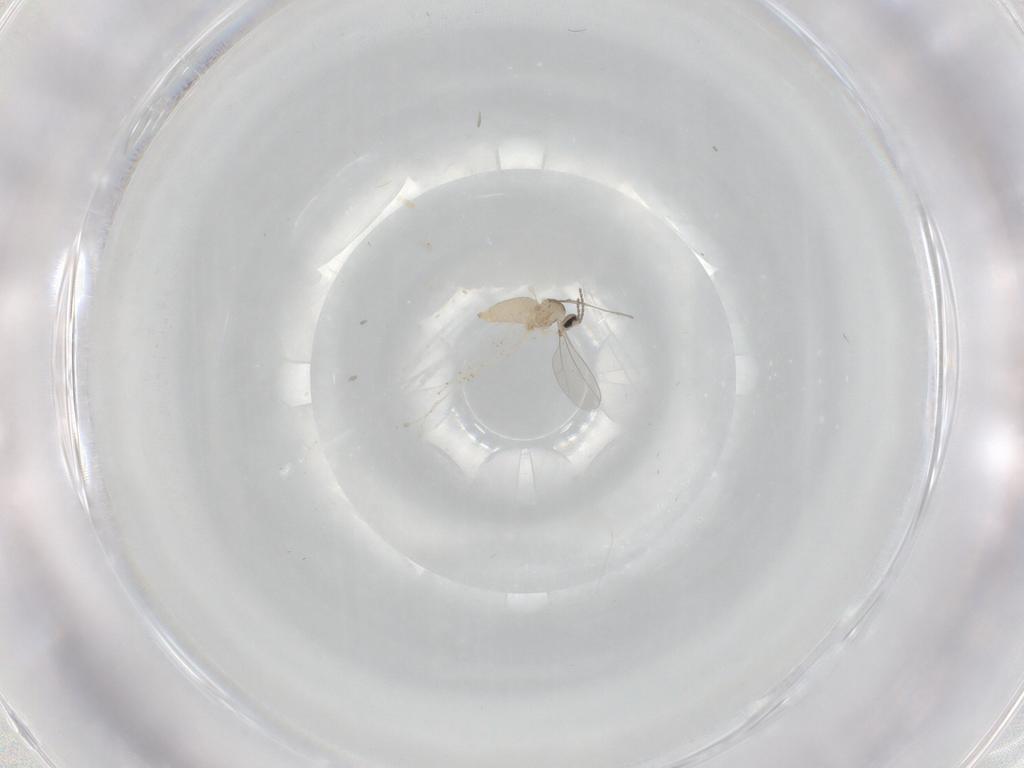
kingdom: Animalia
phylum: Arthropoda
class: Insecta
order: Diptera
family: Cecidomyiidae
